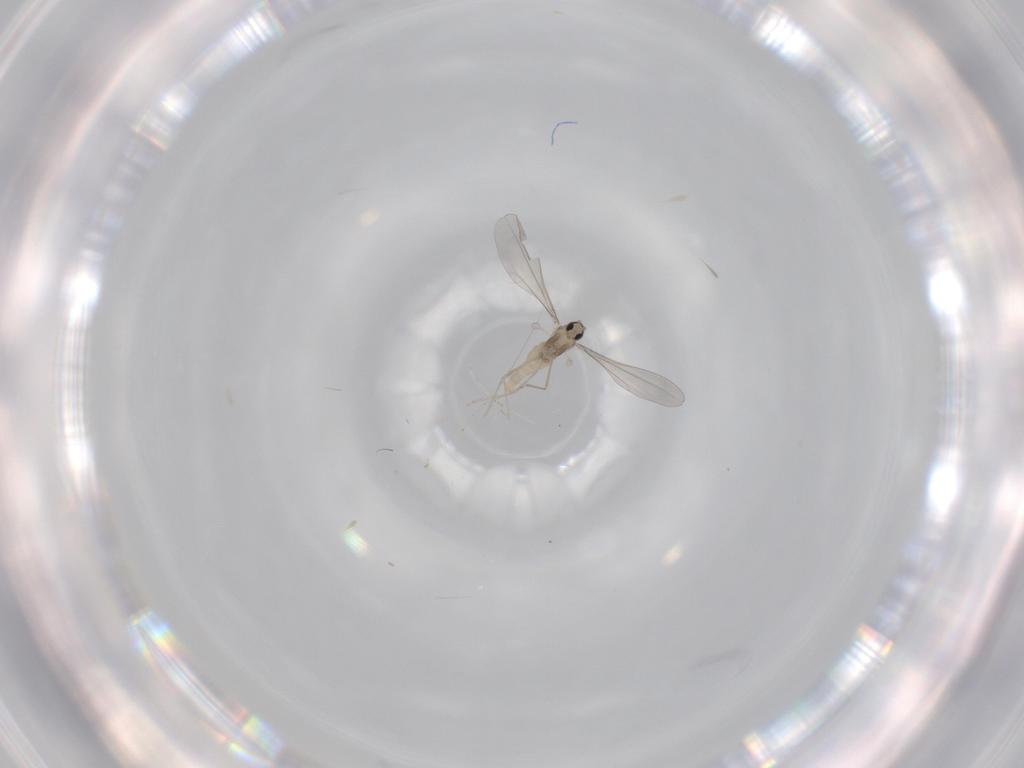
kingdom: Animalia
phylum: Arthropoda
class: Insecta
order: Diptera
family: Cecidomyiidae
